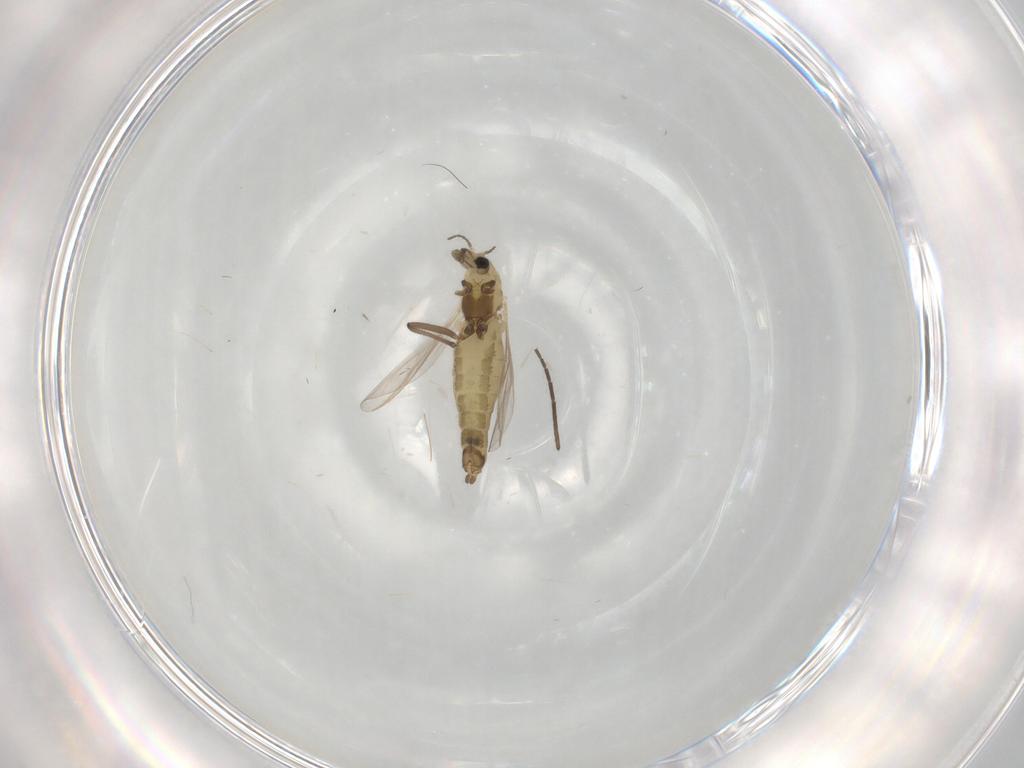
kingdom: Animalia
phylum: Arthropoda
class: Insecta
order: Diptera
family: Chironomidae
